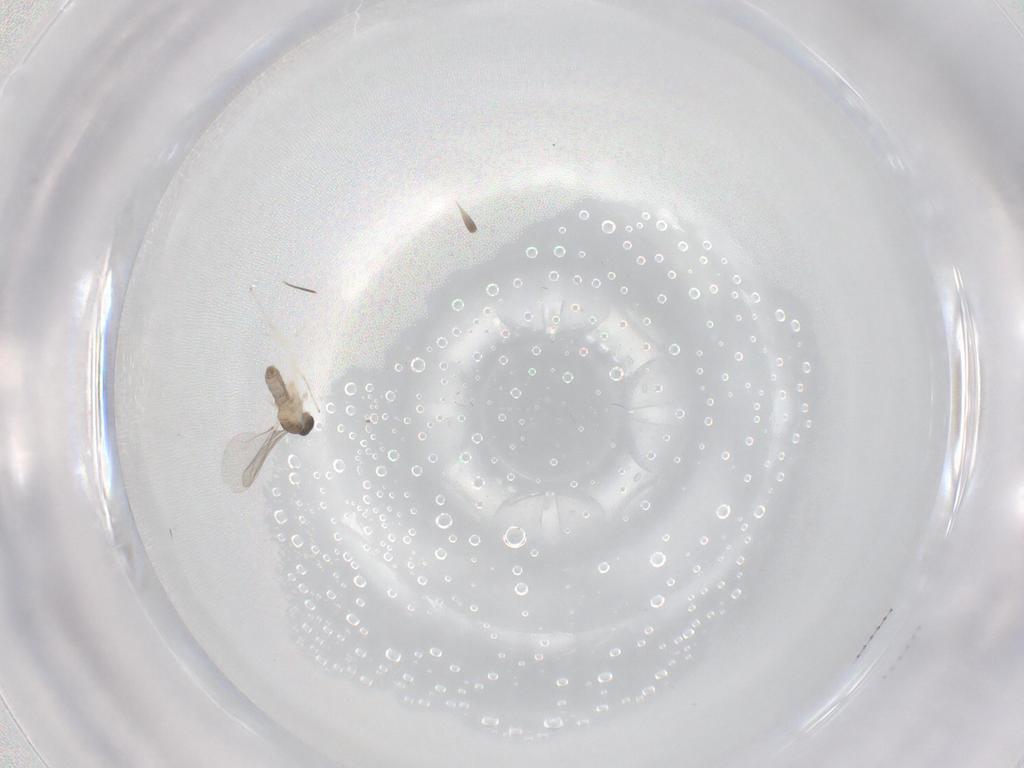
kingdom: Animalia
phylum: Arthropoda
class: Insecta
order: Diptera
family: Cecidomyiidae
